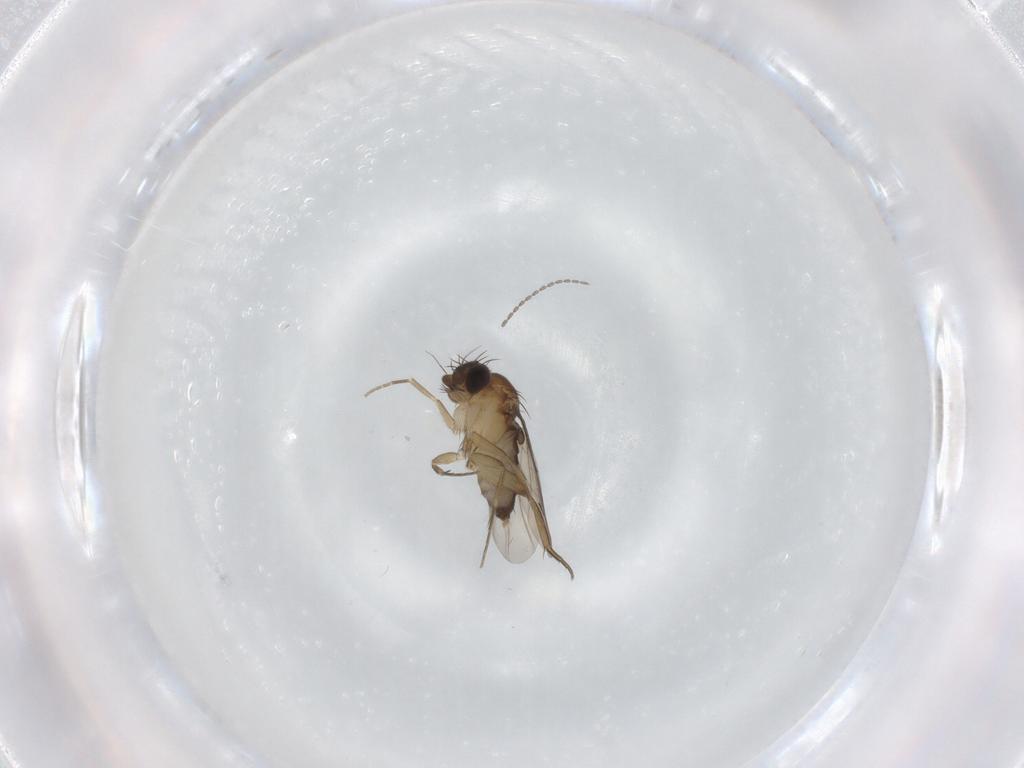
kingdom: Animalia
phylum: Arthropoda
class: Insecta
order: Diptera
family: Phoridae
